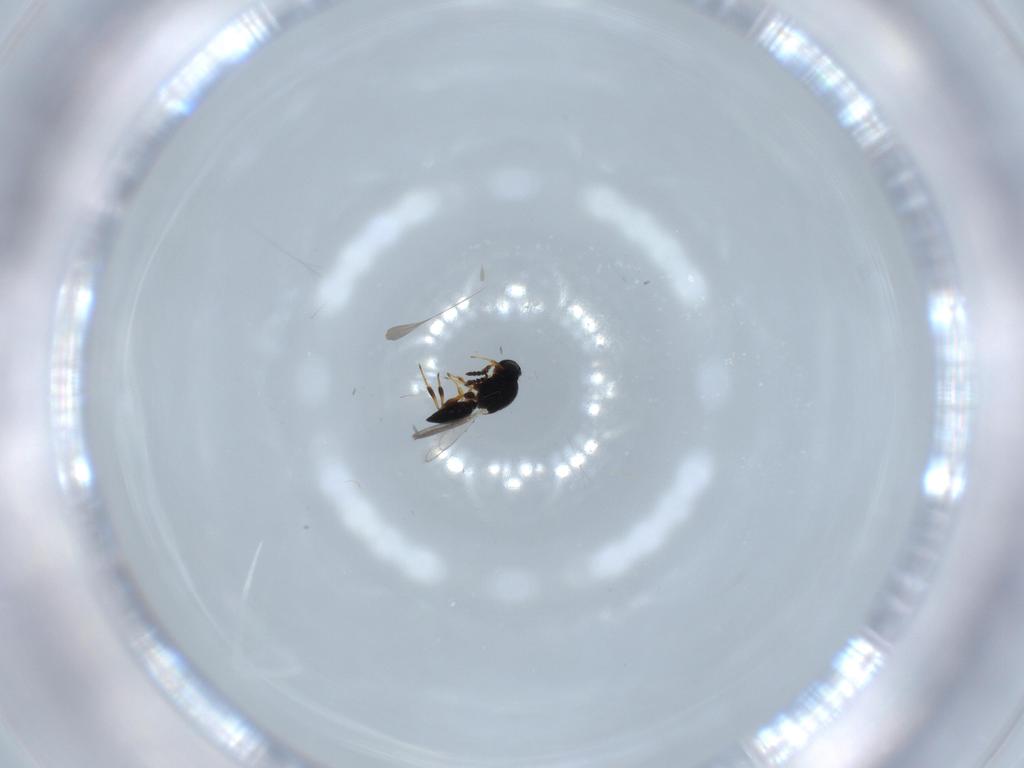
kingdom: Animalia
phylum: Arthropoda
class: Insecta
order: Hymenoptera
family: Platygastridae
